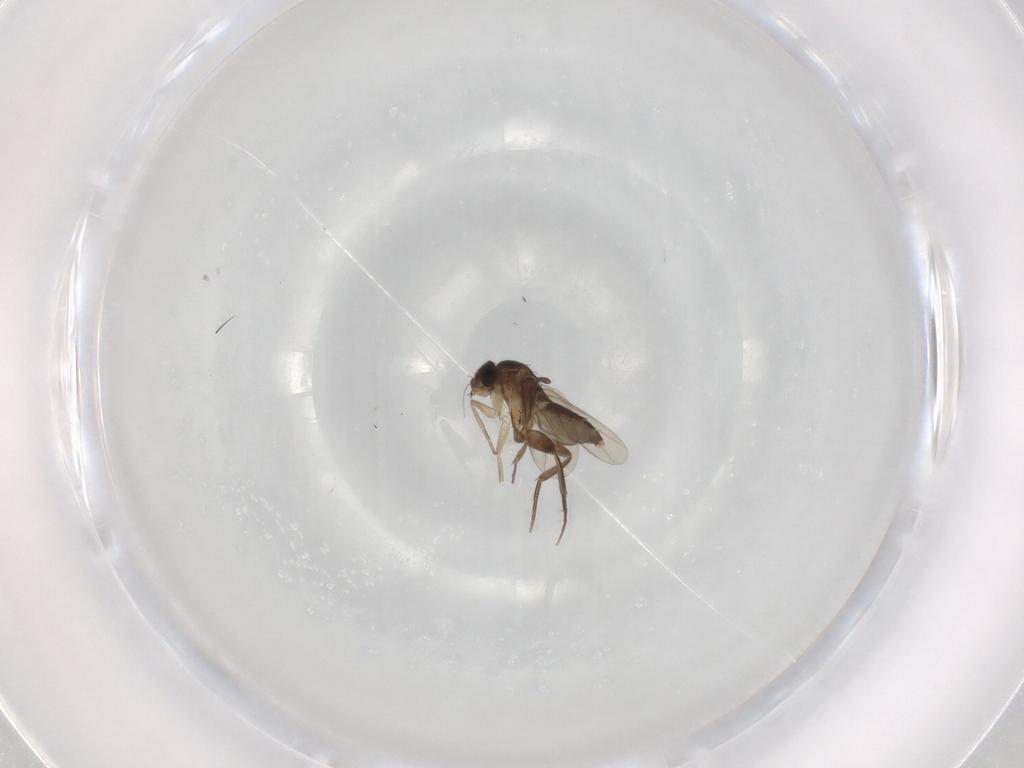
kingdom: Animalia
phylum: Arthropoda
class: Insecta
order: Diptera
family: Phoridae
